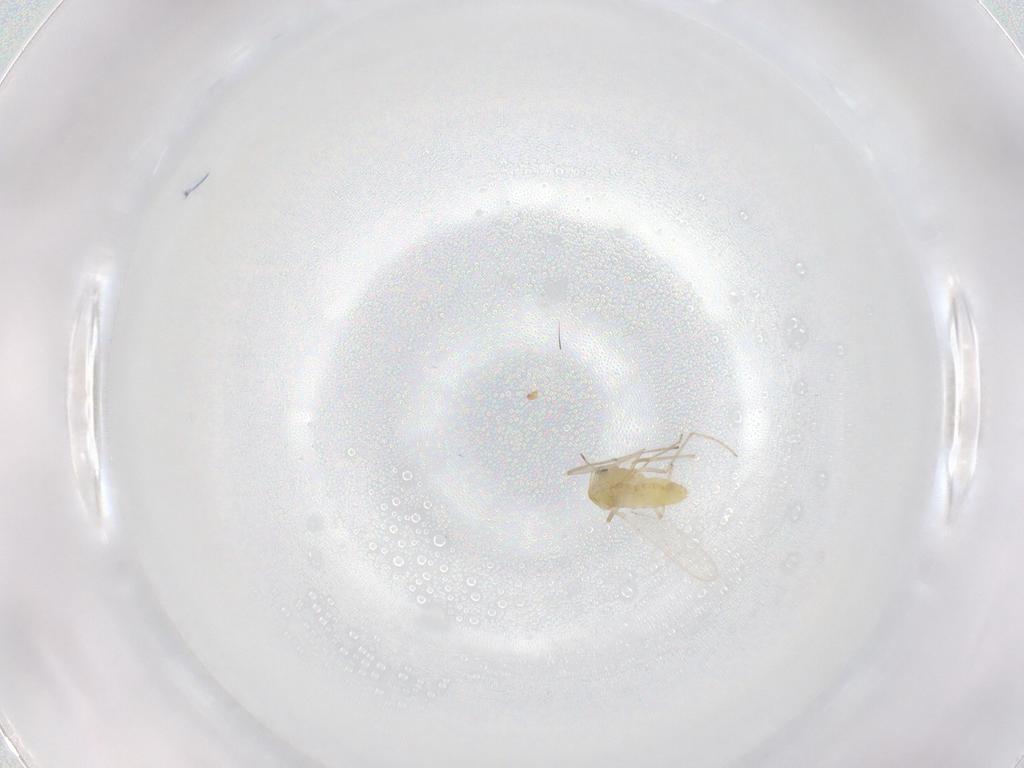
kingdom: Animalia
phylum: Arthropoda
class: Insecta
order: Diptera
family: Chironomidae
